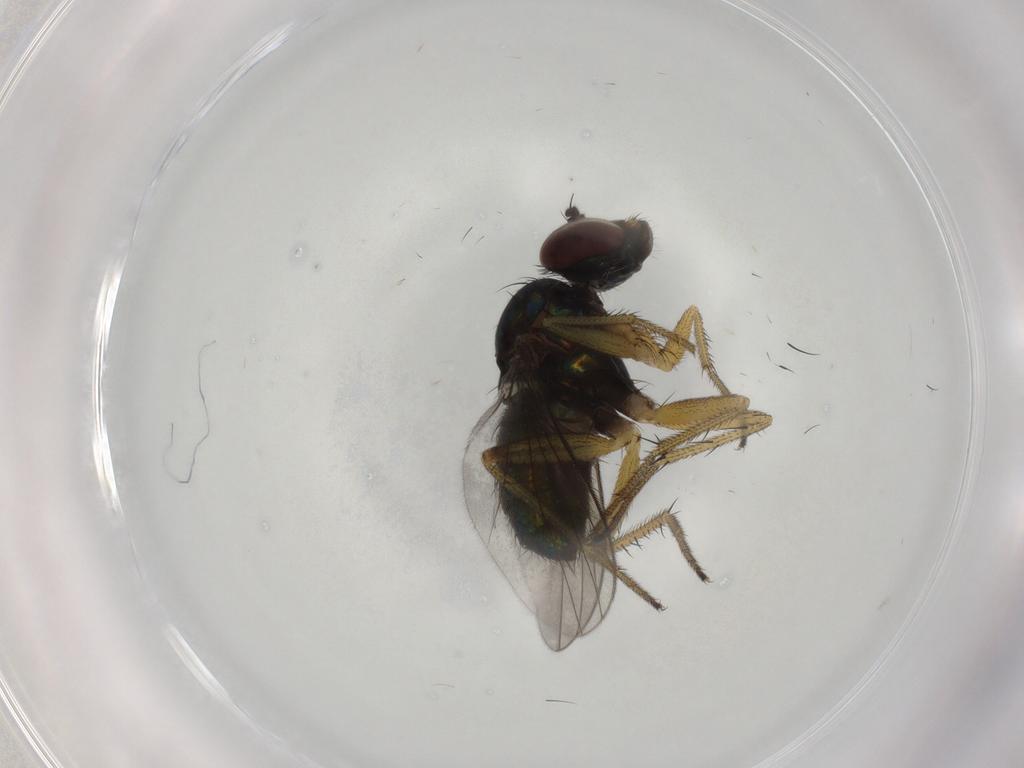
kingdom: Animalia
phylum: Arthropoda
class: Insecta
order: Diptera
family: Dolichopodidae
